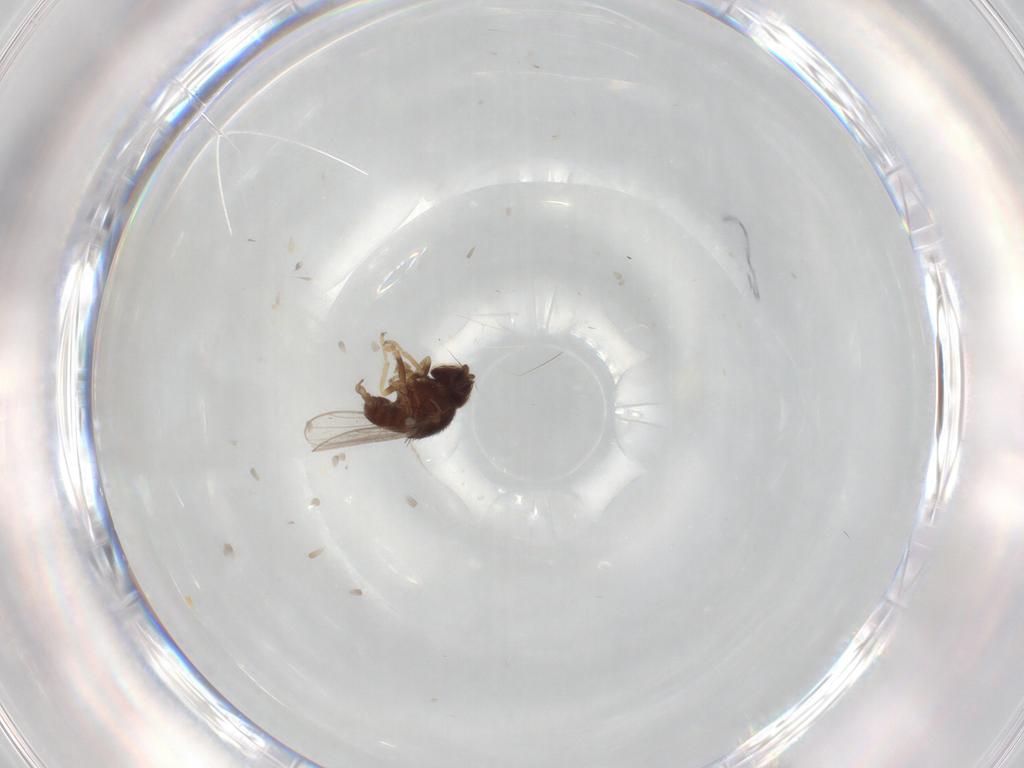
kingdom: Animalia
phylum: Arthropoda
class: Insecta
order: Diptera
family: Chloropidae
